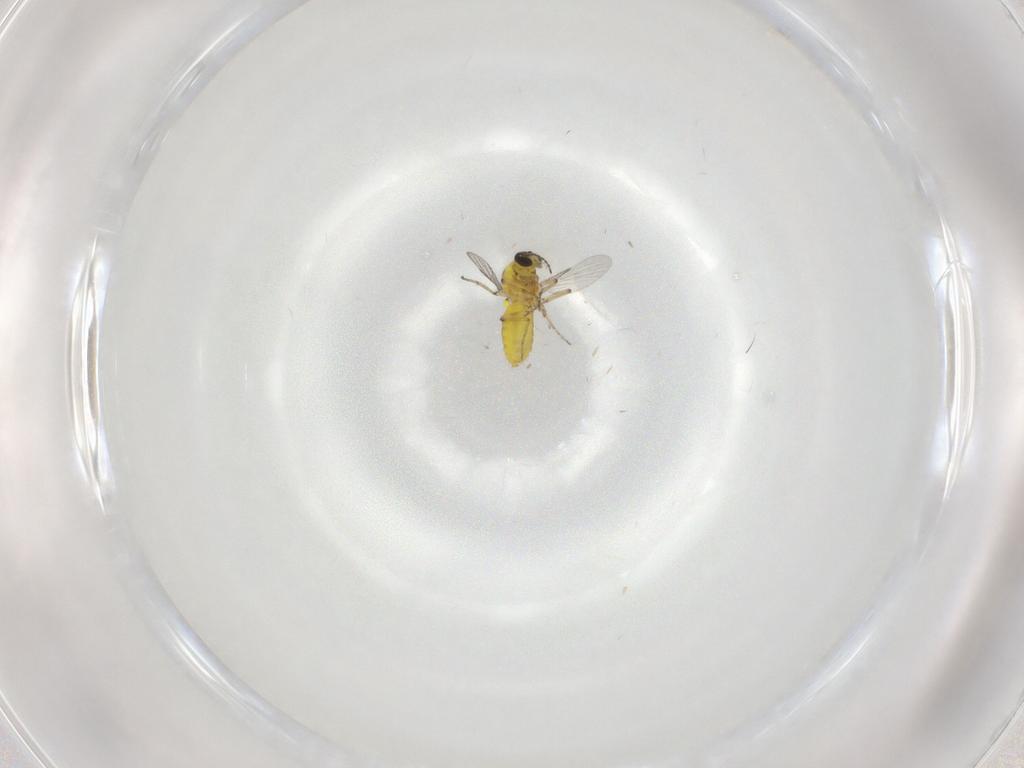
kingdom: Animalia
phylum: Arthropoda
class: Insecta
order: Diptera
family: Ceratopogonidae
